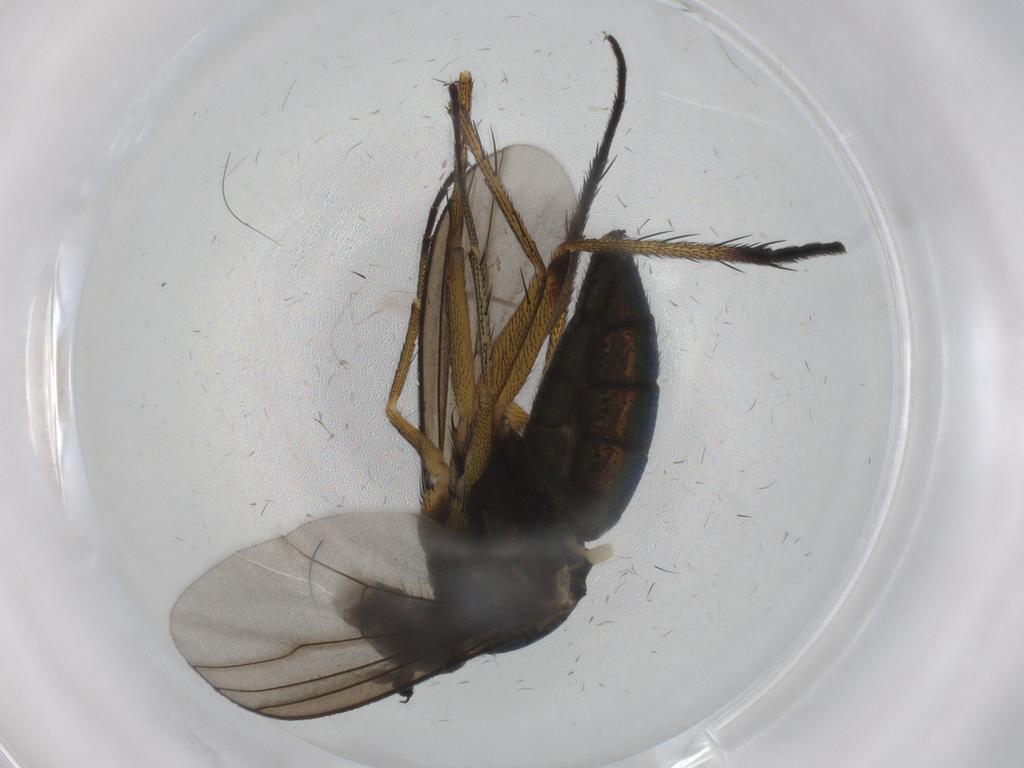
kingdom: Animalia
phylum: Arthropoda
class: Insecta
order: Diptera
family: Dolichopodidae
